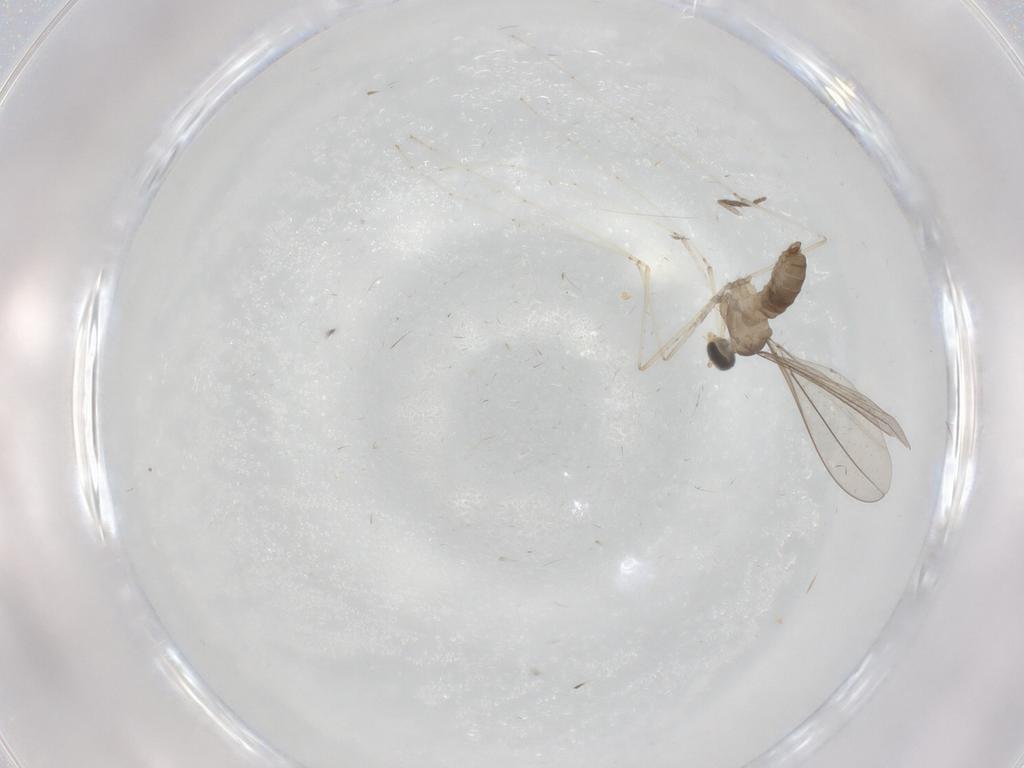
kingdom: Animalia
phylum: Arthropoda
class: Insecta
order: Diptera
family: Psychodidae
